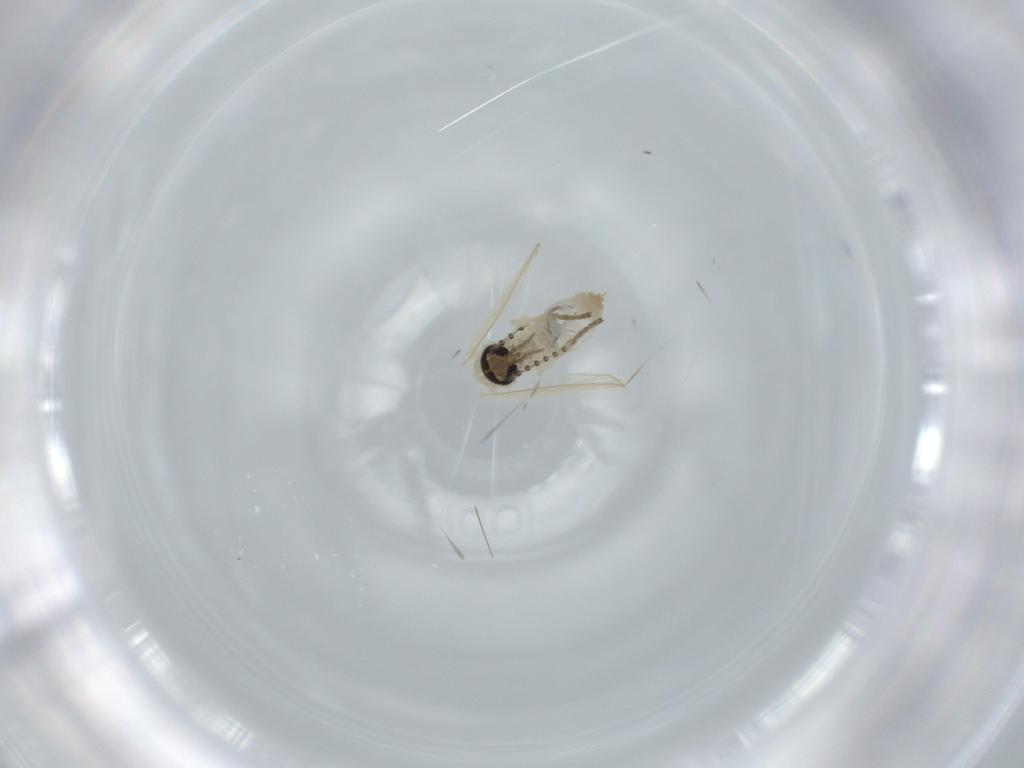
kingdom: Animalia
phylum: Arthropoda
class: Insecta
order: Diptera
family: Psychodidae
